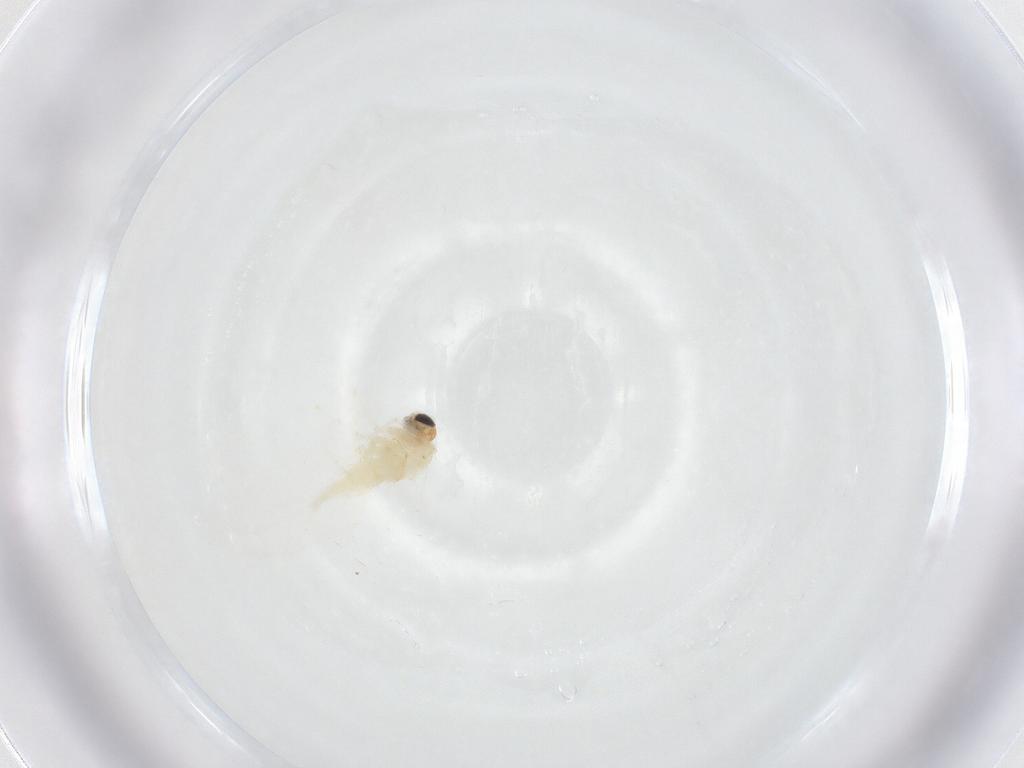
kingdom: Animalia
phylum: Arthropoda
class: Insecta
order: Diptera
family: Sciaridae
